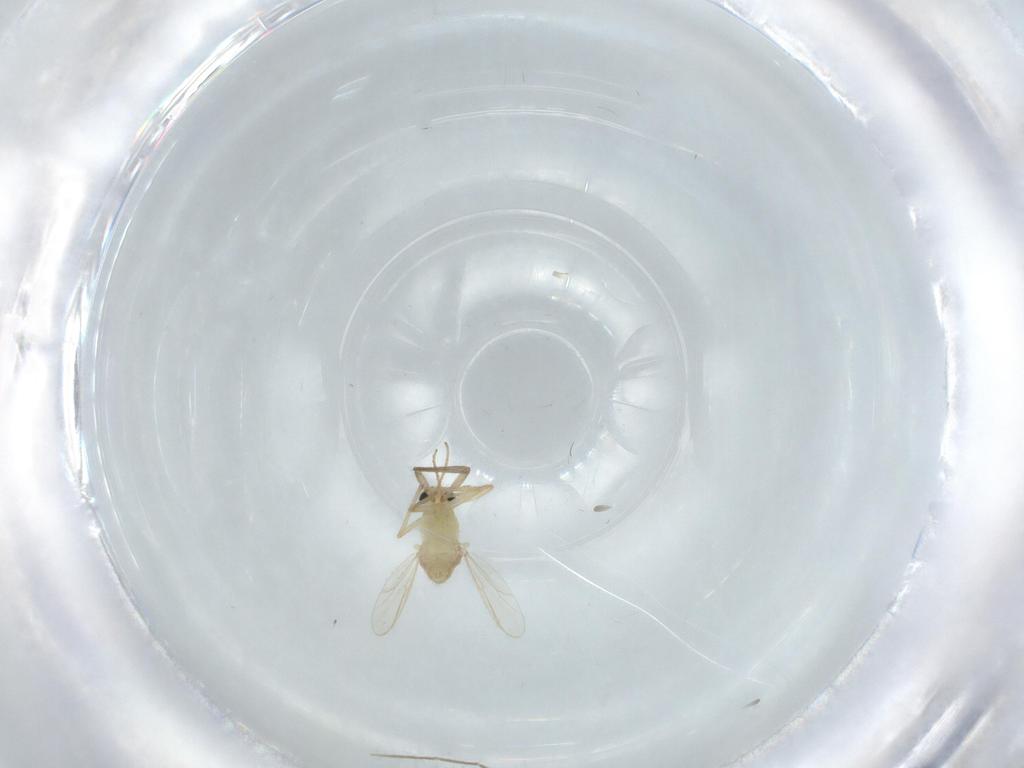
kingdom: Animalia
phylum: Arthropoda
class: Insecta
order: Diptera
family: Chironomidae
